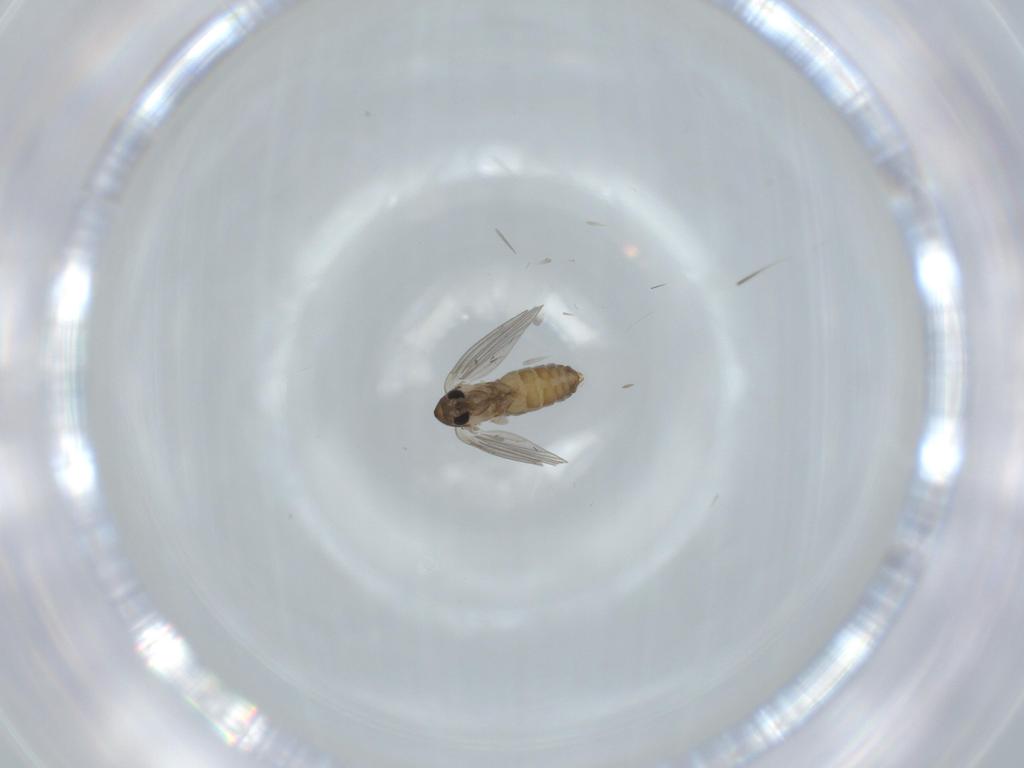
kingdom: Animalia
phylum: Arthropoda
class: Insecta
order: Diptera
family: Psychodidae
